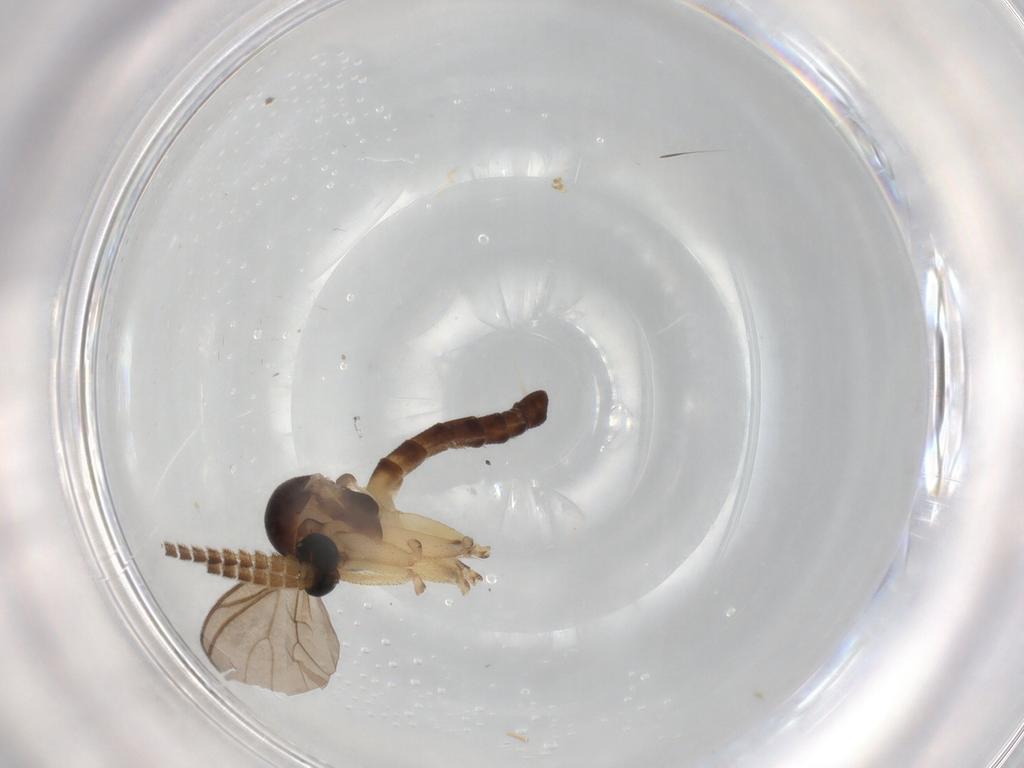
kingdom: Animalia
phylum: Arthropoda
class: Insecta
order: Diptera
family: Mycetophilidae
